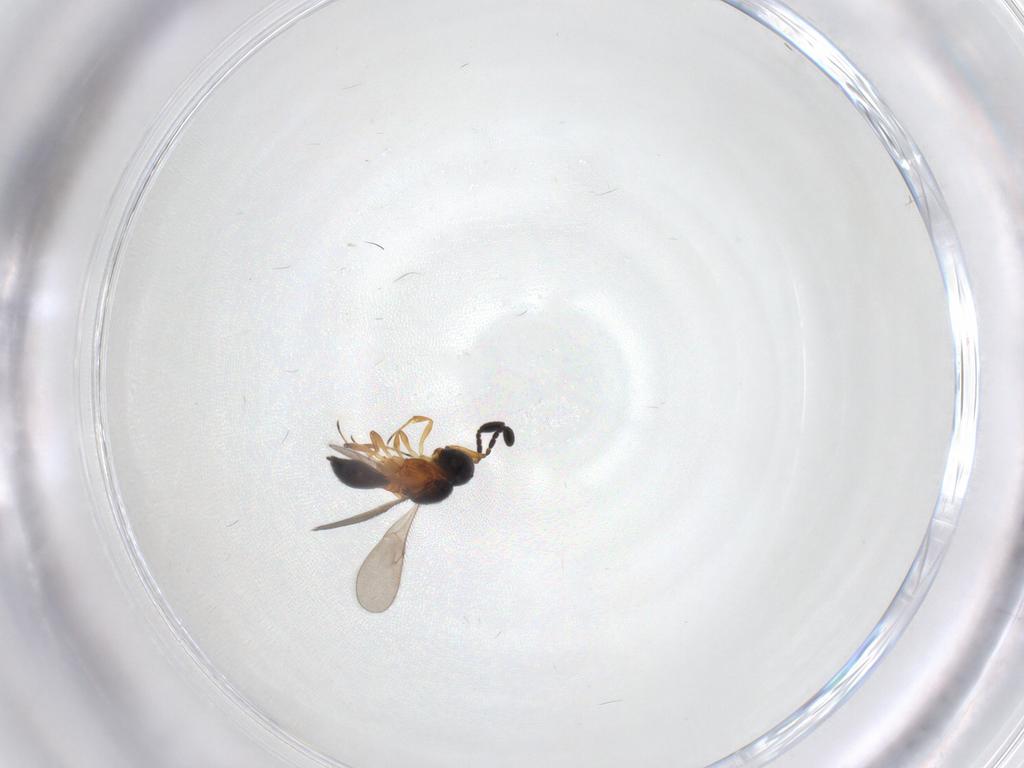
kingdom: Animalia
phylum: Arthropoda
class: Insecta
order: Hymenoptera
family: Scelionidae
